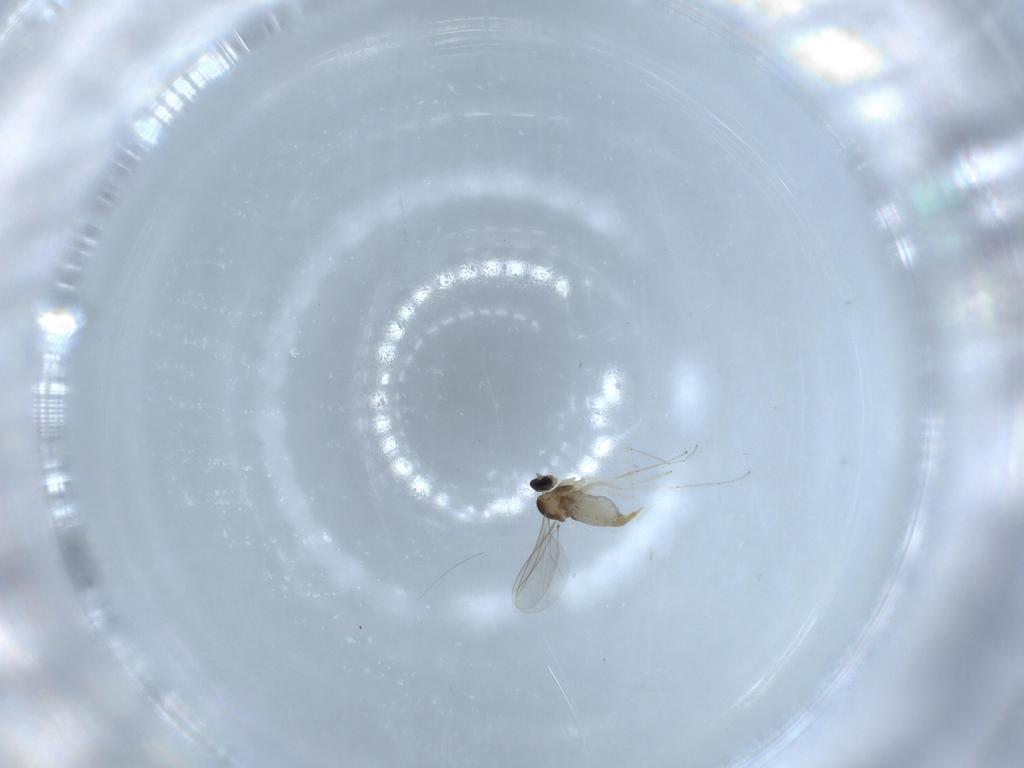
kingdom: Animalia
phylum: Arthropoda
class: Insecta
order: Diptera
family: Cecidomyiidae
